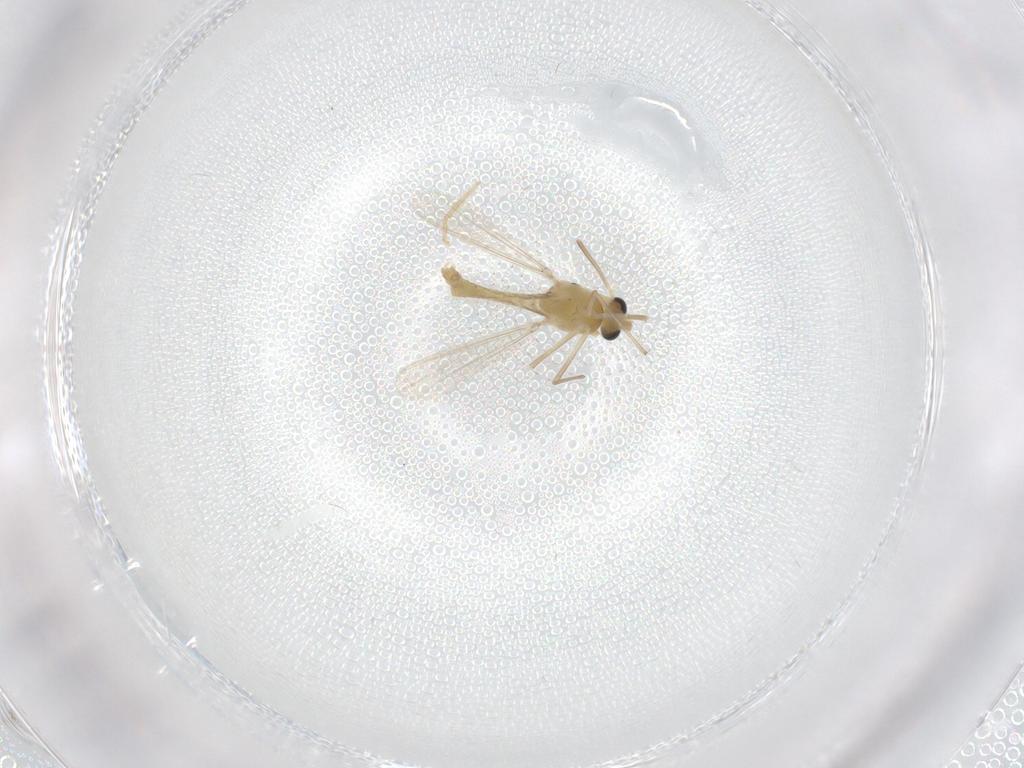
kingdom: Animalia
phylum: Arthropoda
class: Insecta
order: Diptera
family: Chironomidae
